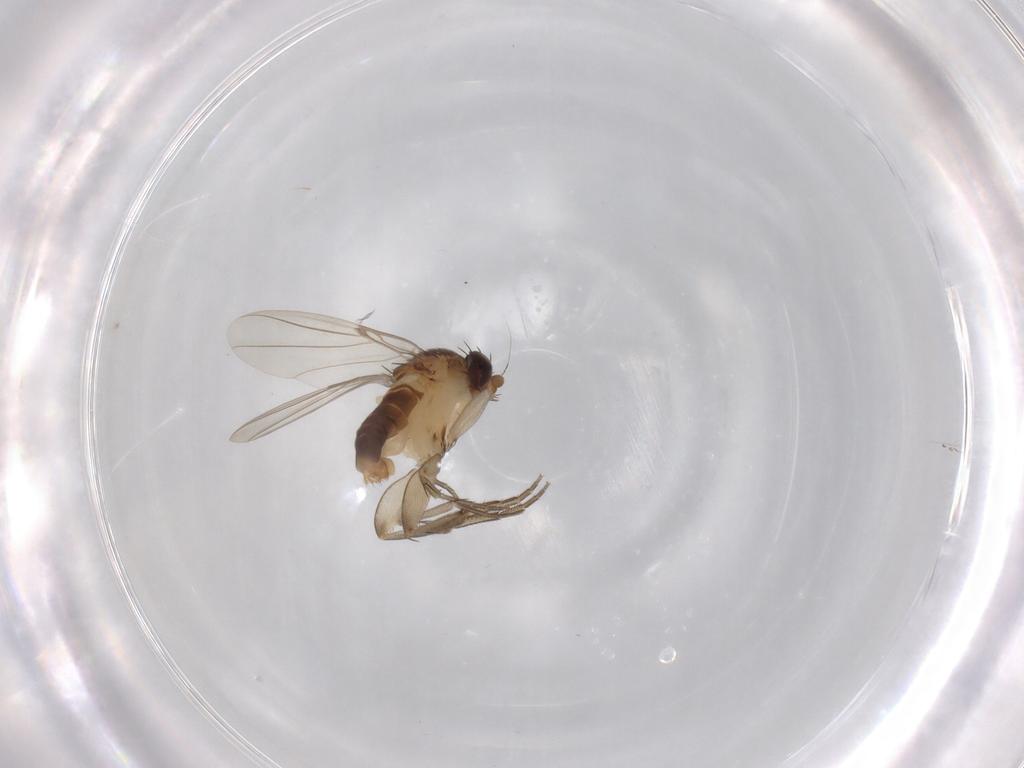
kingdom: Animalia
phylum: Arthropoda
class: Insecta
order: Diptera
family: Phoridae
